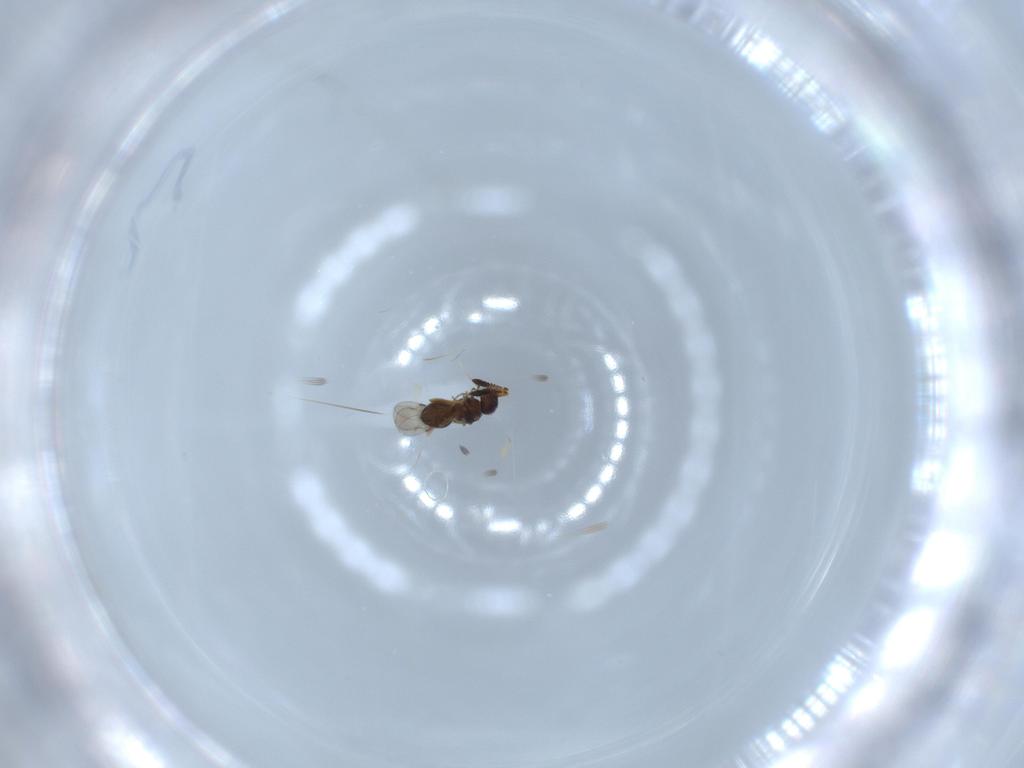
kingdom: Animalia
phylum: Arthropoda
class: Insecta
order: Hymenoptera
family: Ceraphronidae
